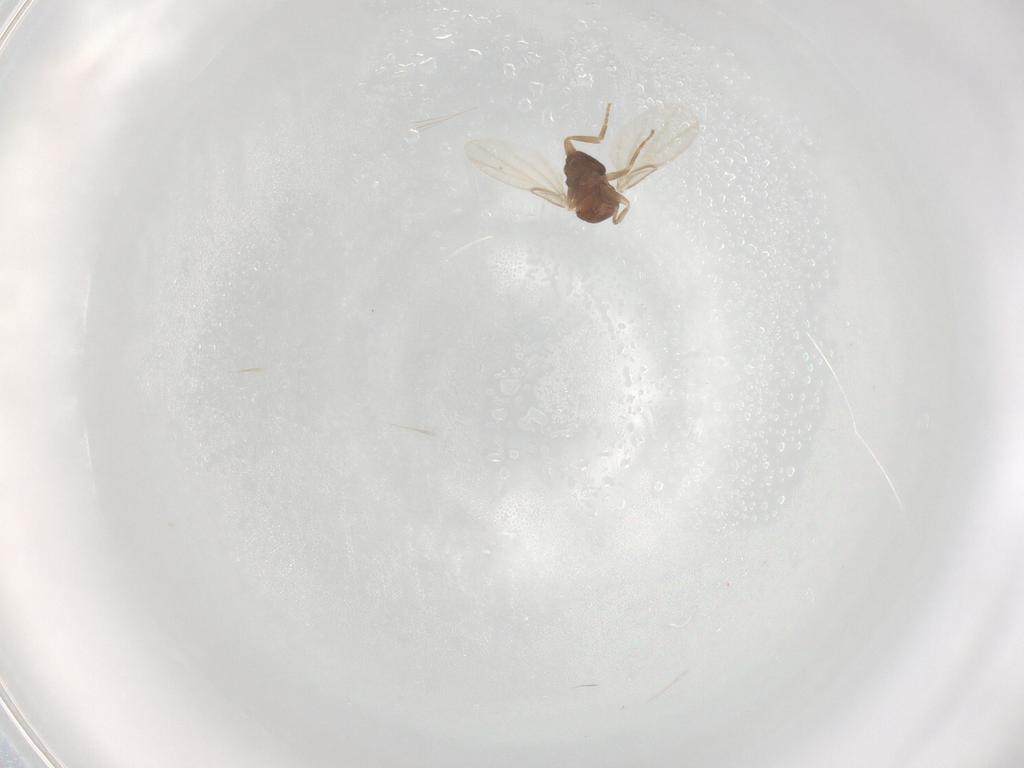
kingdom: Animalia
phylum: Arthropoda
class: Insecta
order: Diptera
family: Phoridae
